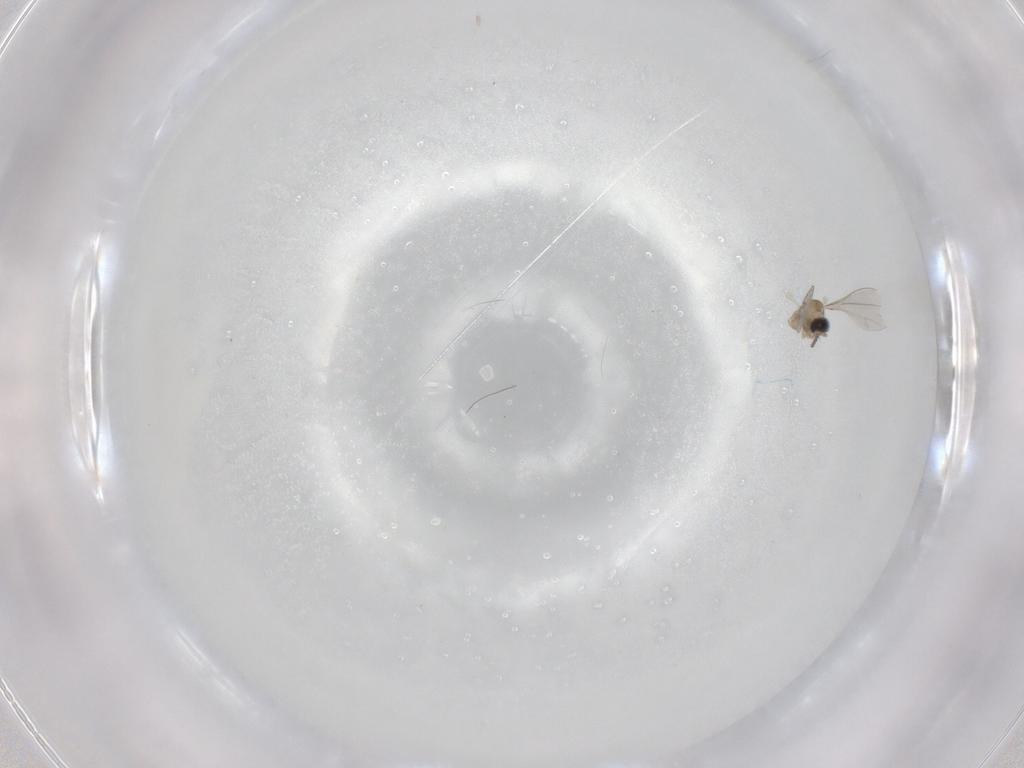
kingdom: Animalia
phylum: Arthropoda
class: Insecta
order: Diptera
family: Cecidomyiidae
